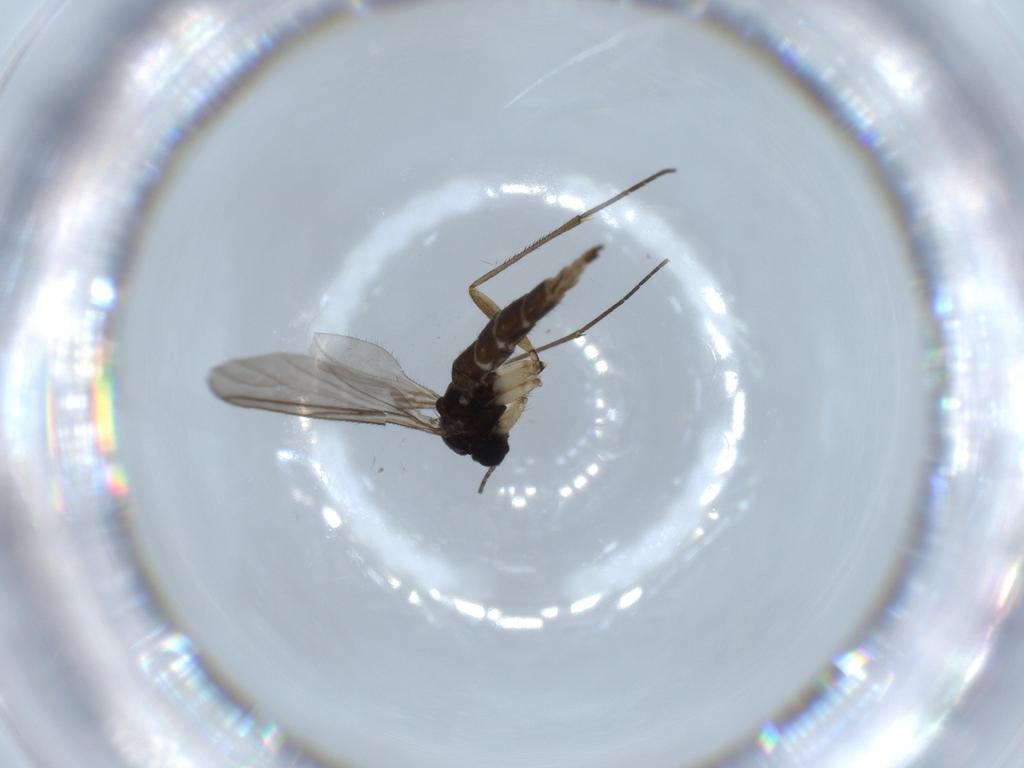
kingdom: Animalia
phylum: Arthropoda
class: Insecta
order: Diptera
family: Sciaridae
